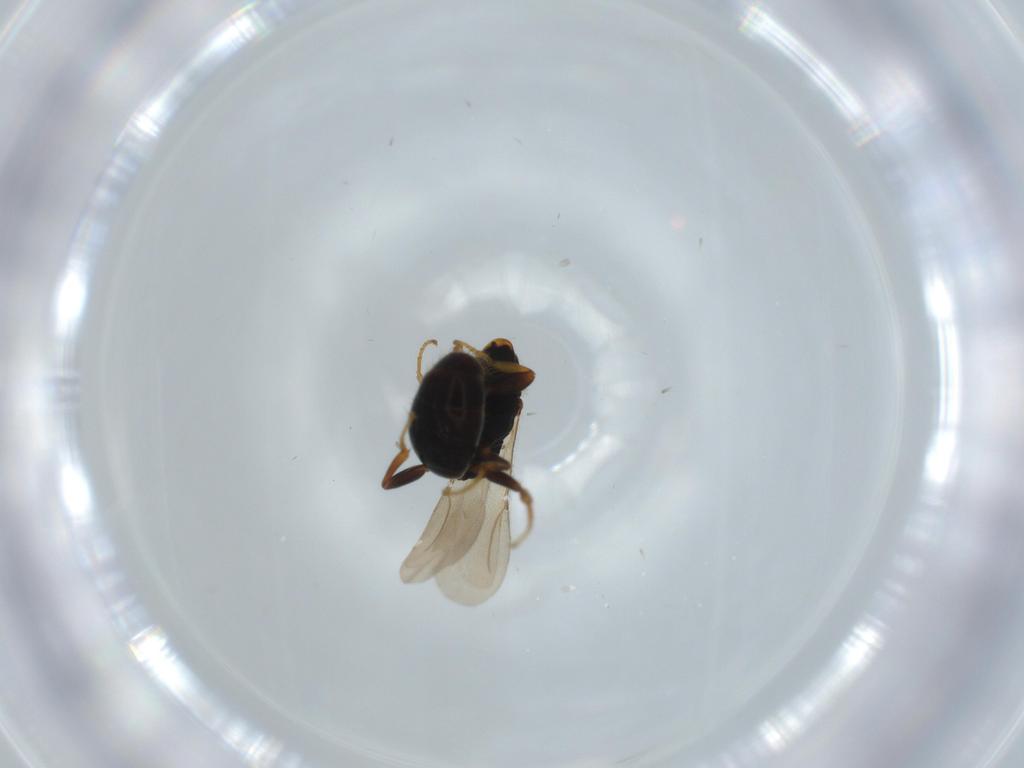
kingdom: Animalia
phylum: Arthropoda
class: Insecta
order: Hymenoptera
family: Bethylidae
